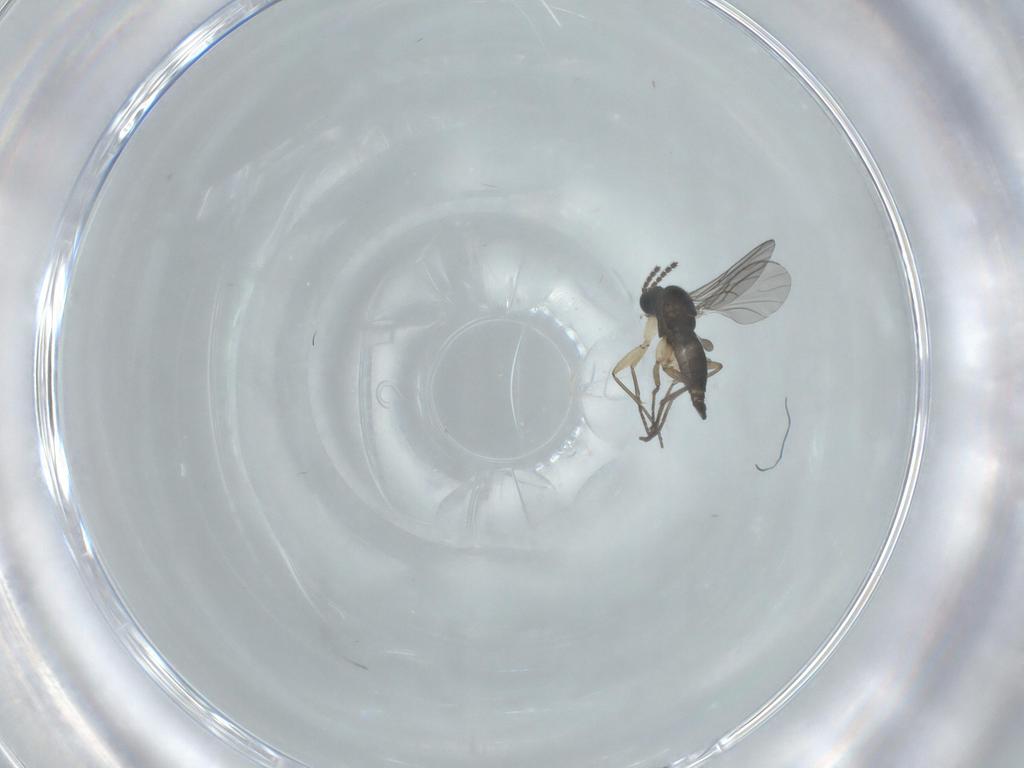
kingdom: Animalia
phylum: Arthropoda
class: Insecta
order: Diptera
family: Sciaridae
